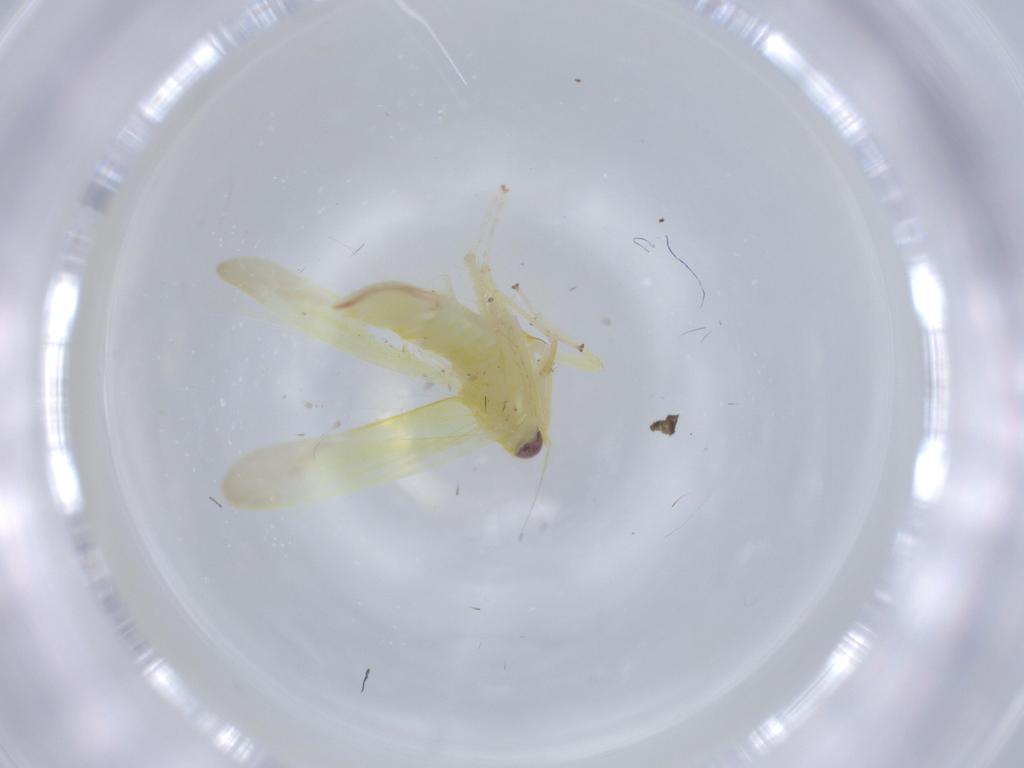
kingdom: Animalia
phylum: Arthropoda
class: Insecta
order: Hemiptera
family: Cicadellidae
